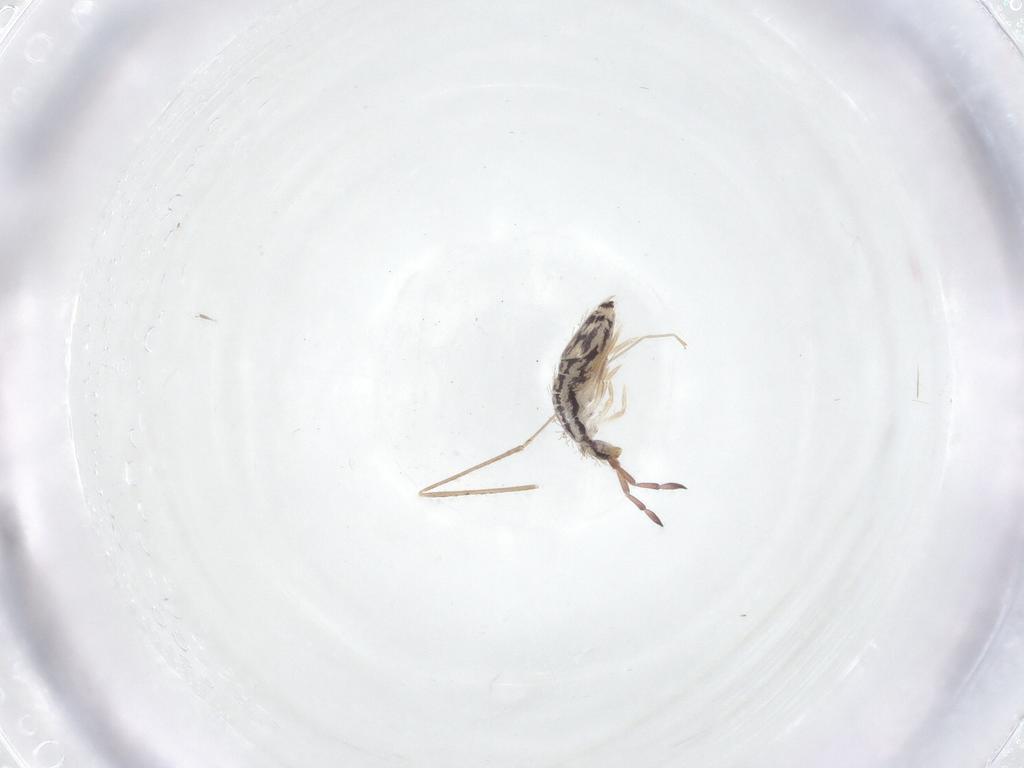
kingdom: Animalia
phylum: Arthropoda
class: Collembola
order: Entomobryomorpha
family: Entomobryidae
